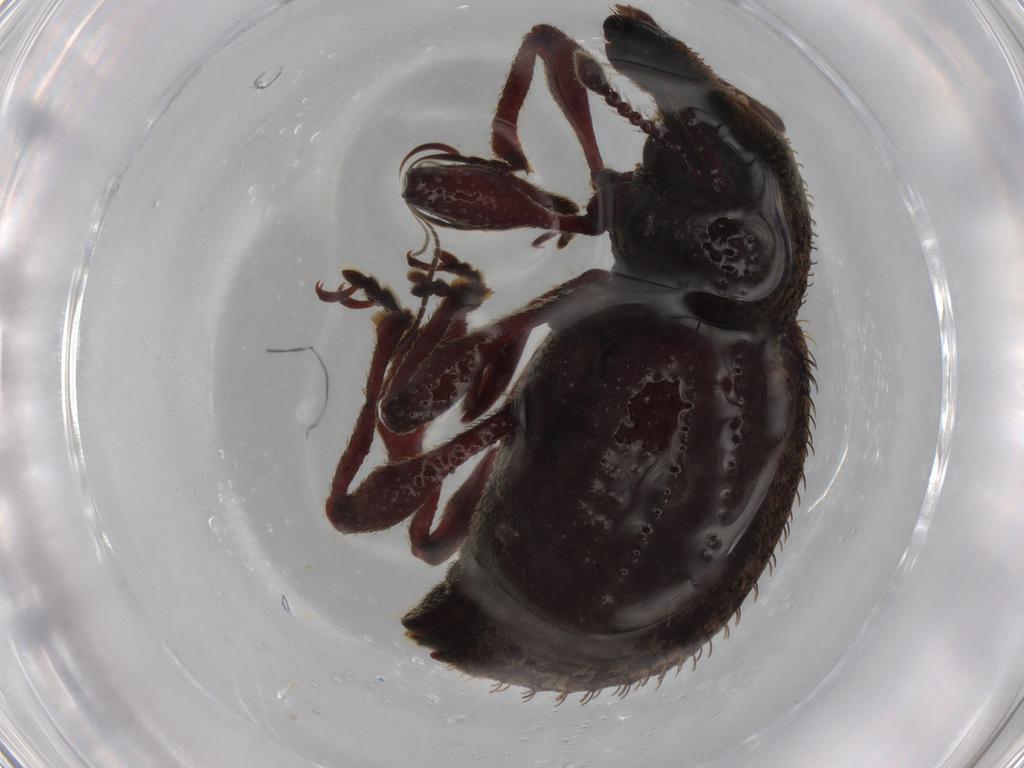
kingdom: Animalia
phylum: Arthropoda
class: Insecta
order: Coleoptera
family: Curculionidae
